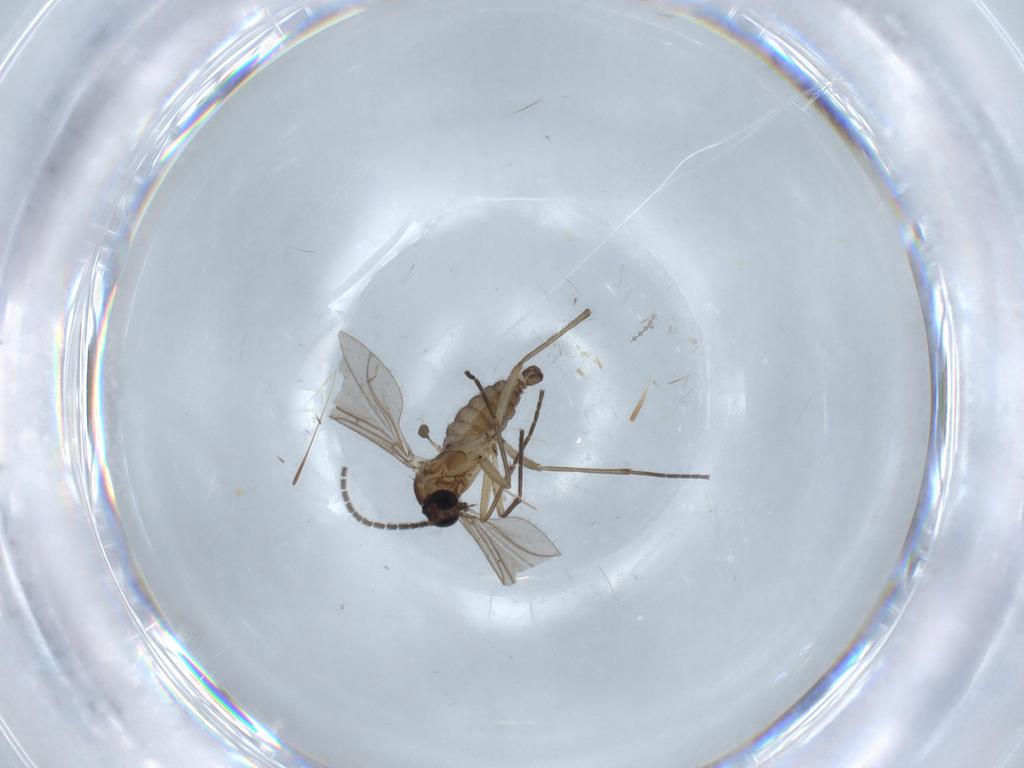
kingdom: Animalia
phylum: Arthropoda
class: Insecta
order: Diptera
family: Sciaridae
